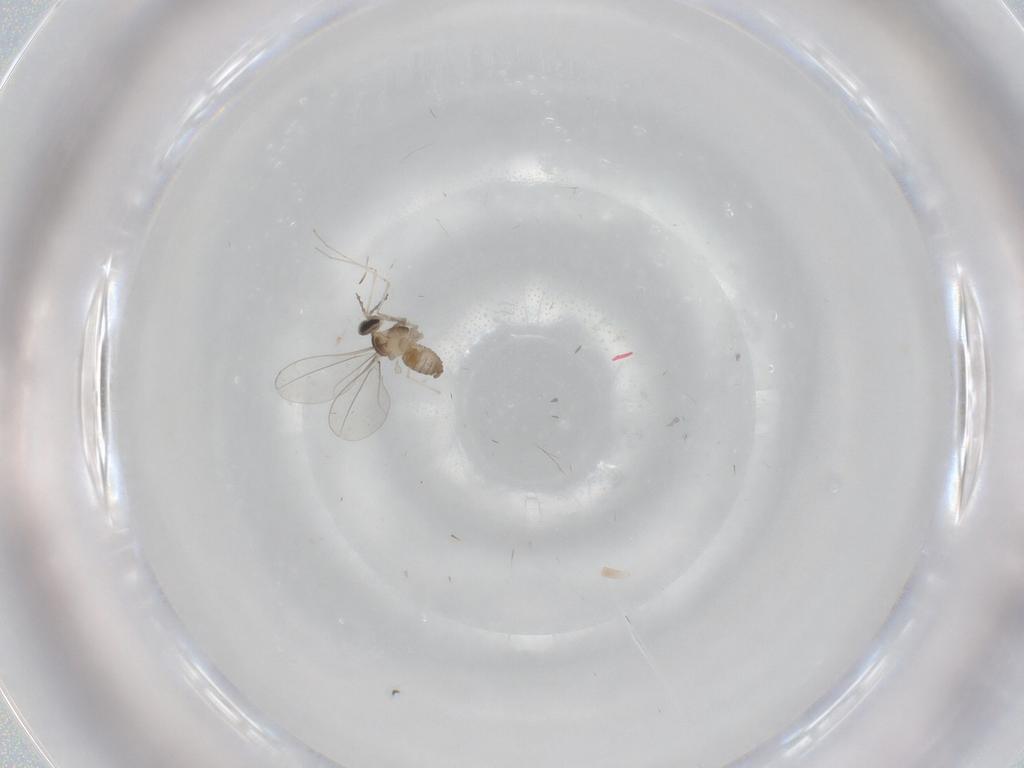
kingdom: Animalia
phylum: Arthropoda
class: Insecta
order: Diptera
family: Cecidomyiidae
